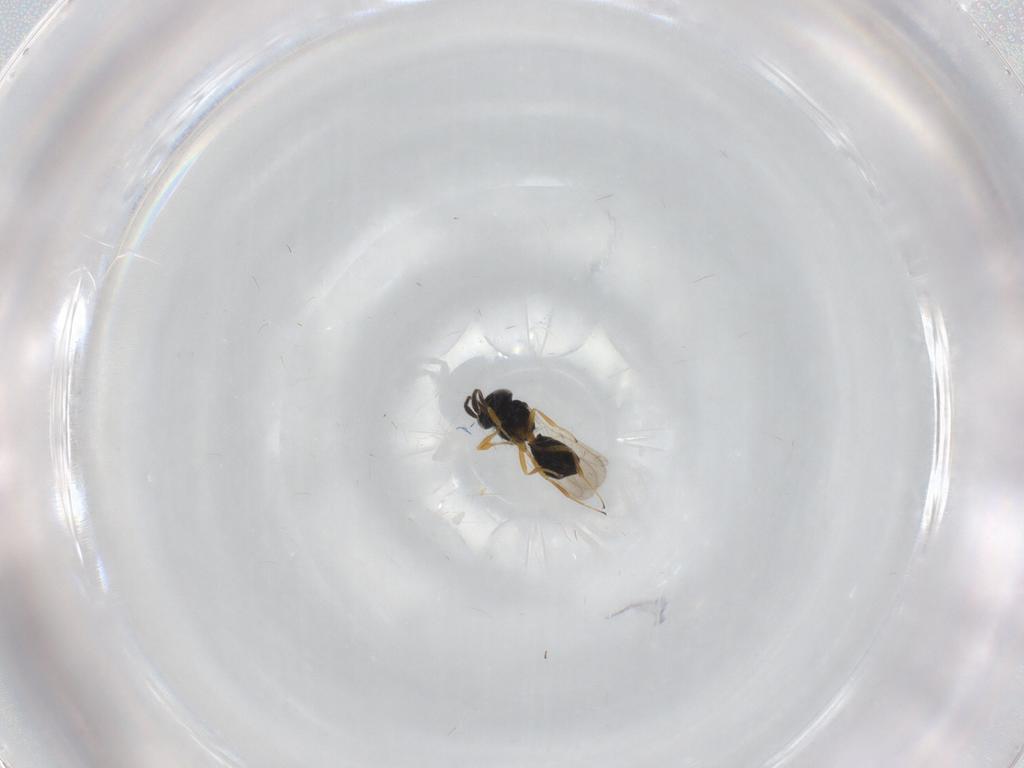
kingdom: Animalia
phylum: Arthropoda
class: Insecta
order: Hymenoptera
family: Scelionidae
